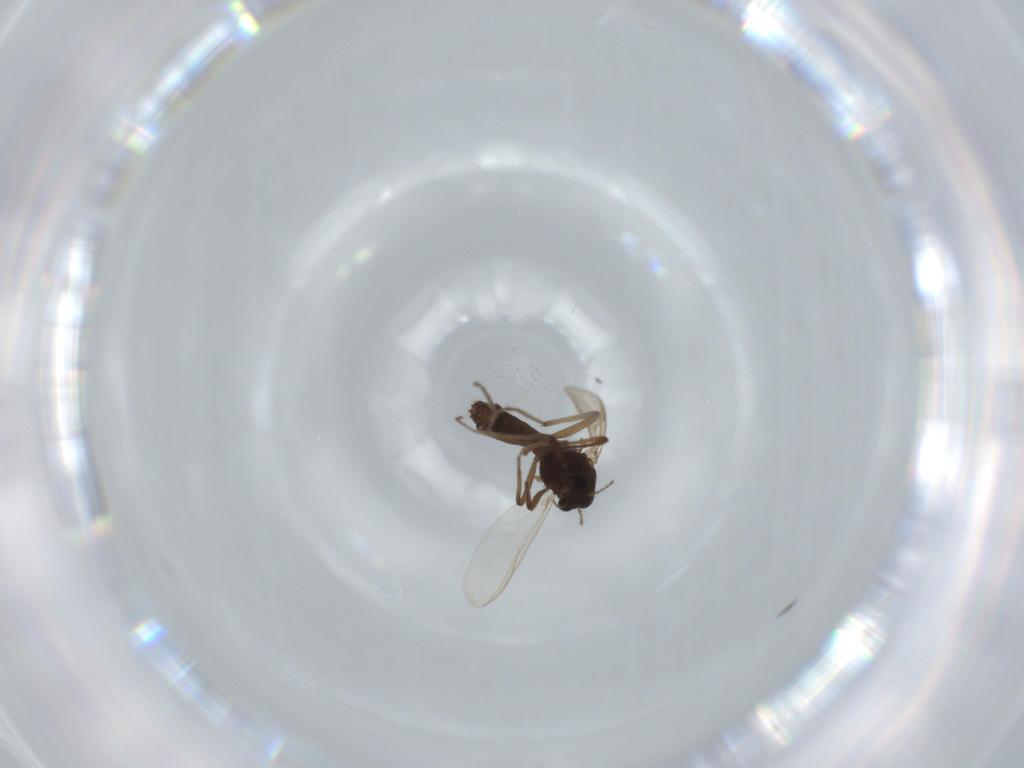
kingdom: Animalia
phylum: Arthropoda
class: Insecta
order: Diptera
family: Chironomidae
